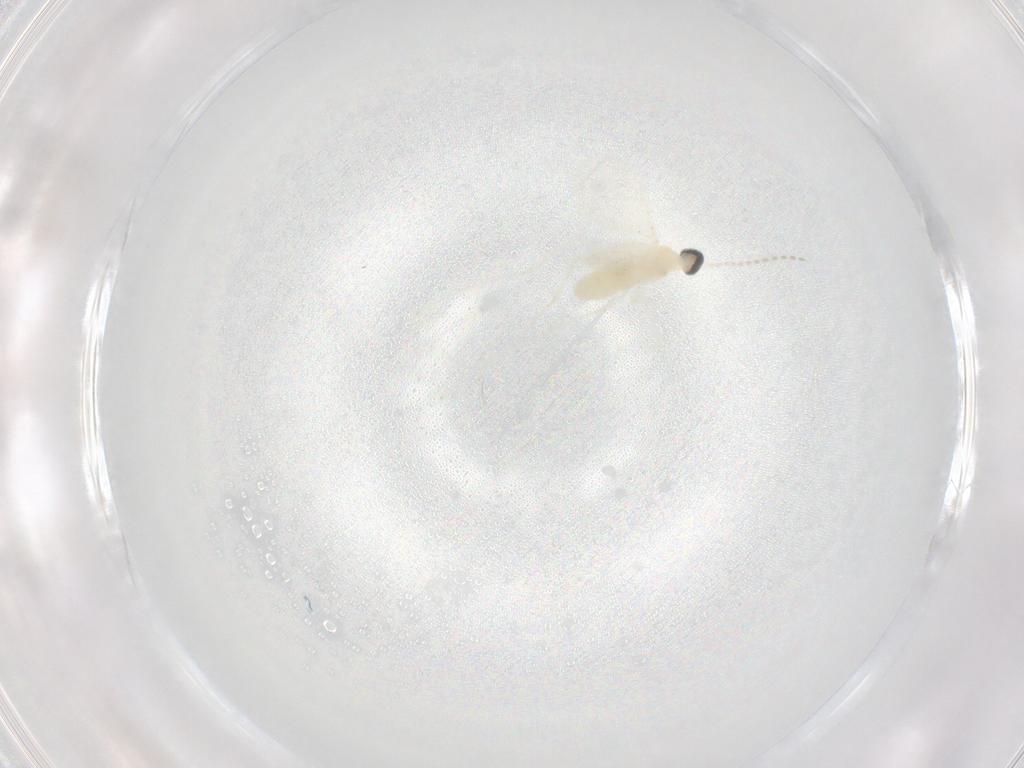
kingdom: Animalia
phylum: Arthropoda
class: Insecta
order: Diptera
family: Cecidomyiidae
